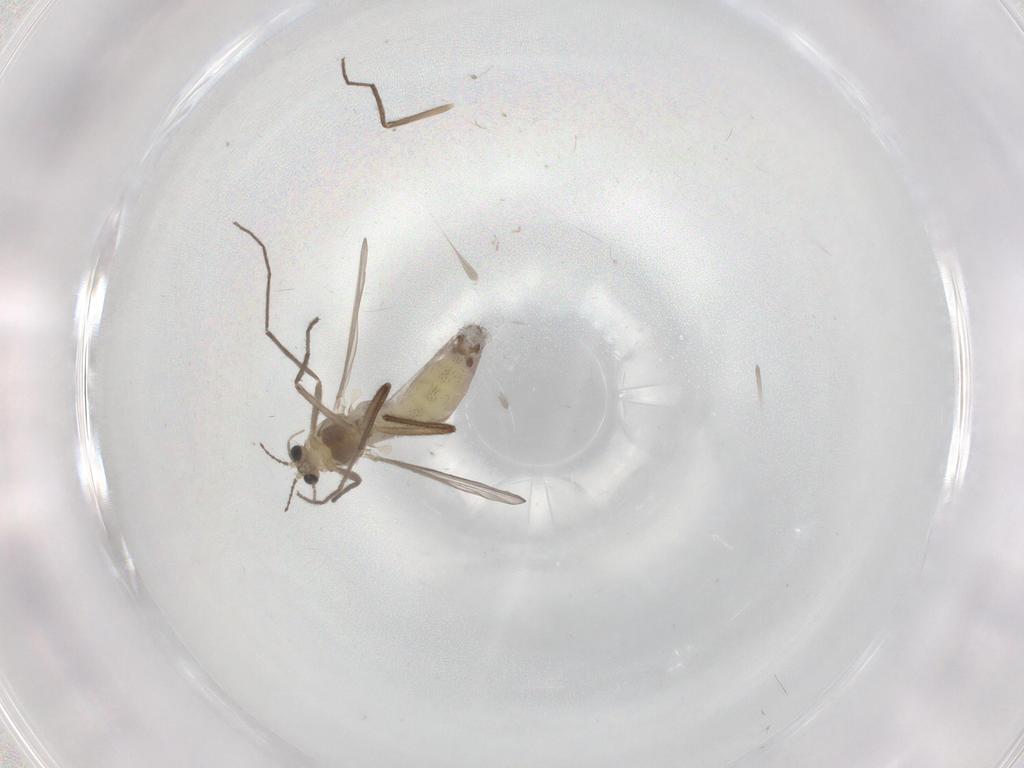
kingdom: Animalia
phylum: Arthropoda
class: Insecta
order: Diptera
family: Chironomidae
